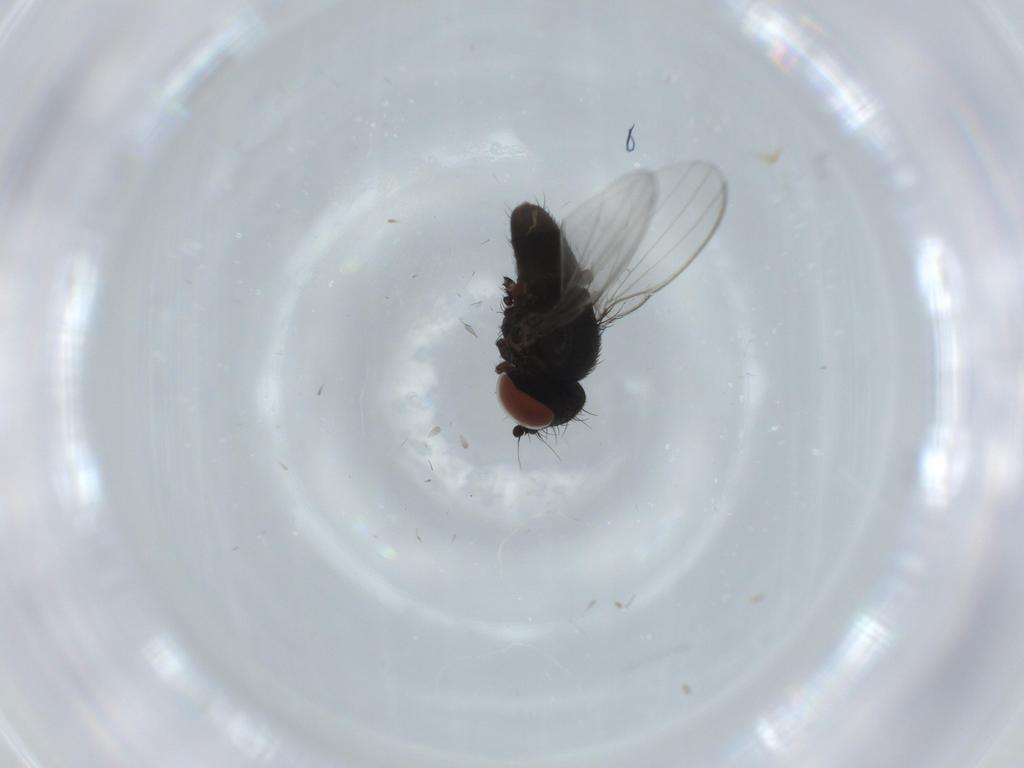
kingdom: Animalia
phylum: Arthropoda
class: Insecta
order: Diptera
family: Milichiidae
